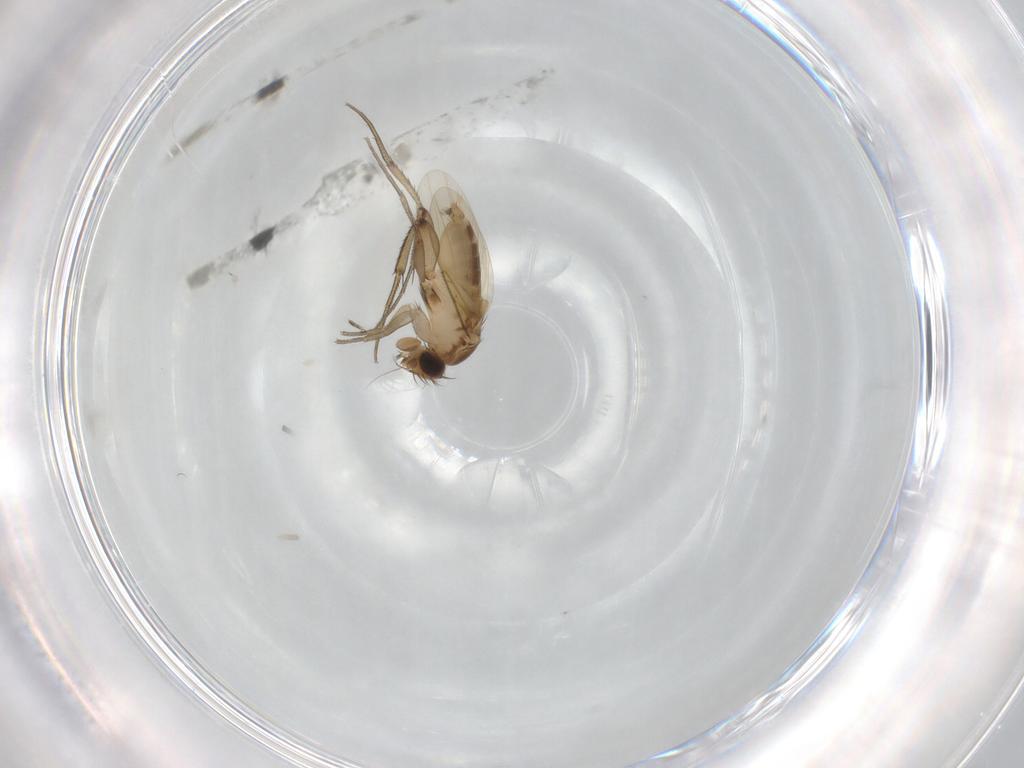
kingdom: Animalia
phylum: Arthropoda
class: Insecta
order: Diptera
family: Phoridae
